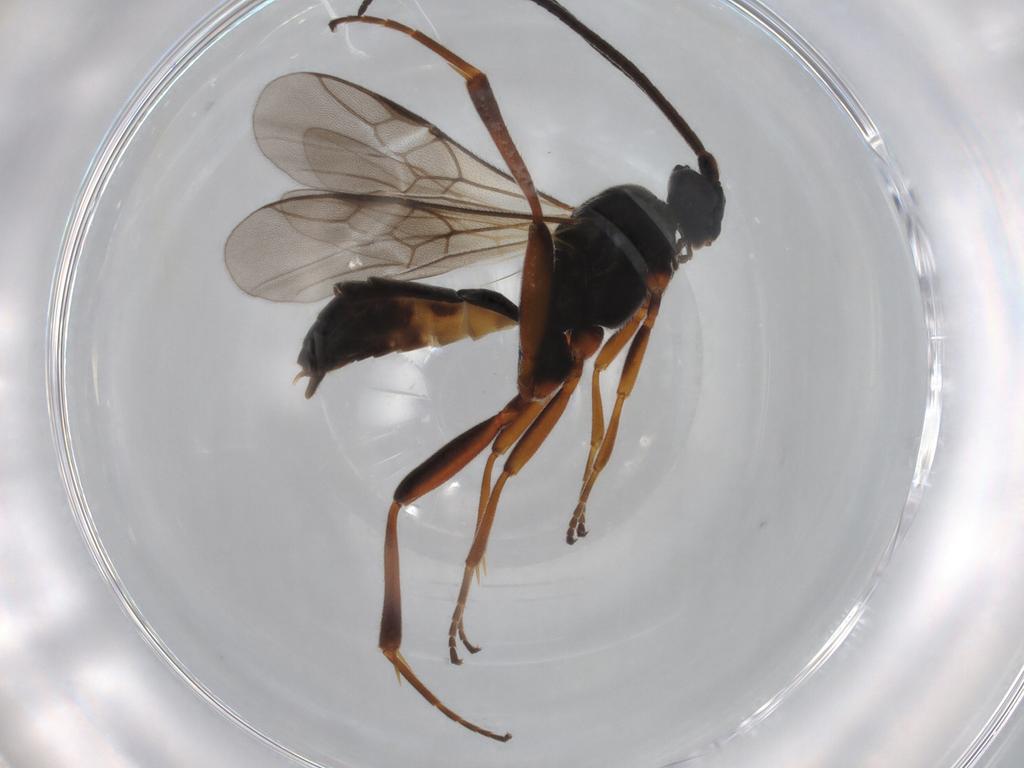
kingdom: Animalia
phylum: Arthropoda
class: Insecta
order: Hymenoptera
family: Braconidae
